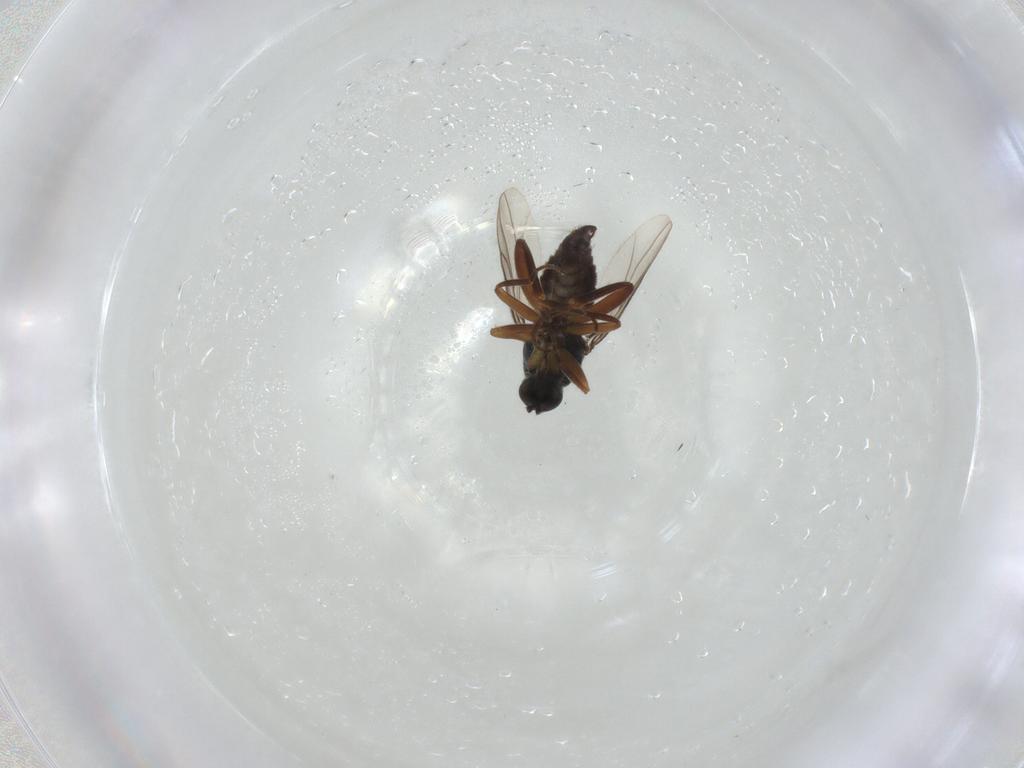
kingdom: Animalia
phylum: Arthropoda
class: Insecta
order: Diptera
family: Hybotidae
